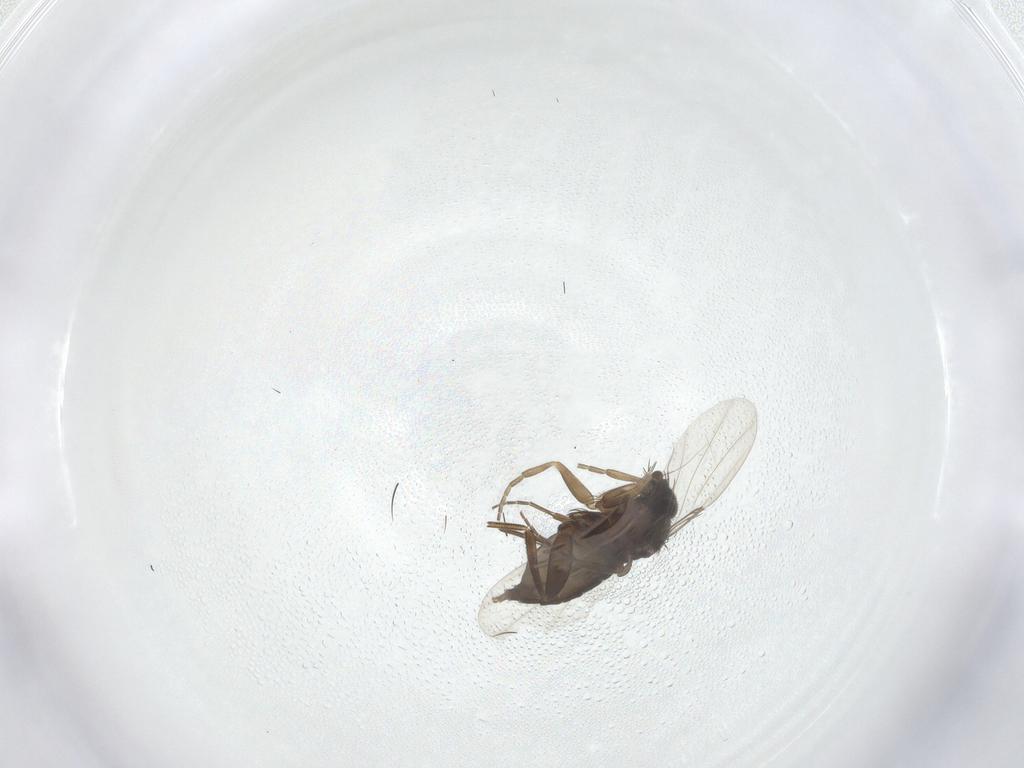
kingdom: Animalia
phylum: Arthropoda
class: Insecta
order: Diptera
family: Phoridae
